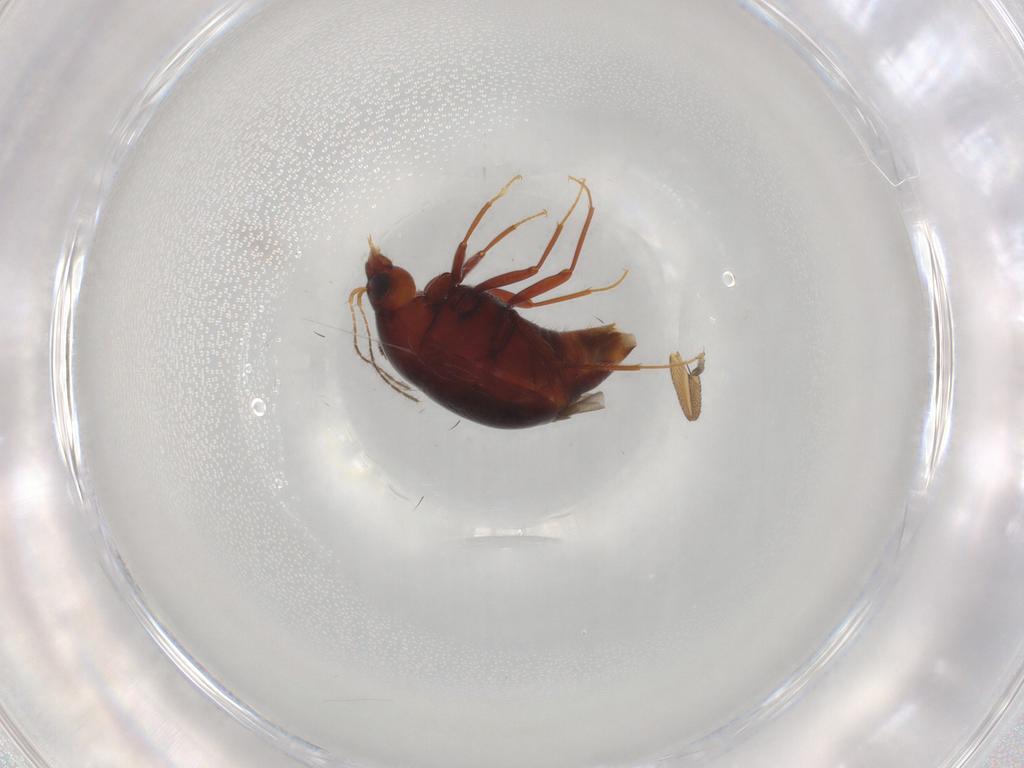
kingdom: Animalia
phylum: Arthropoda
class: Insecta
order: Coleoptera
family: Staphylinidae
